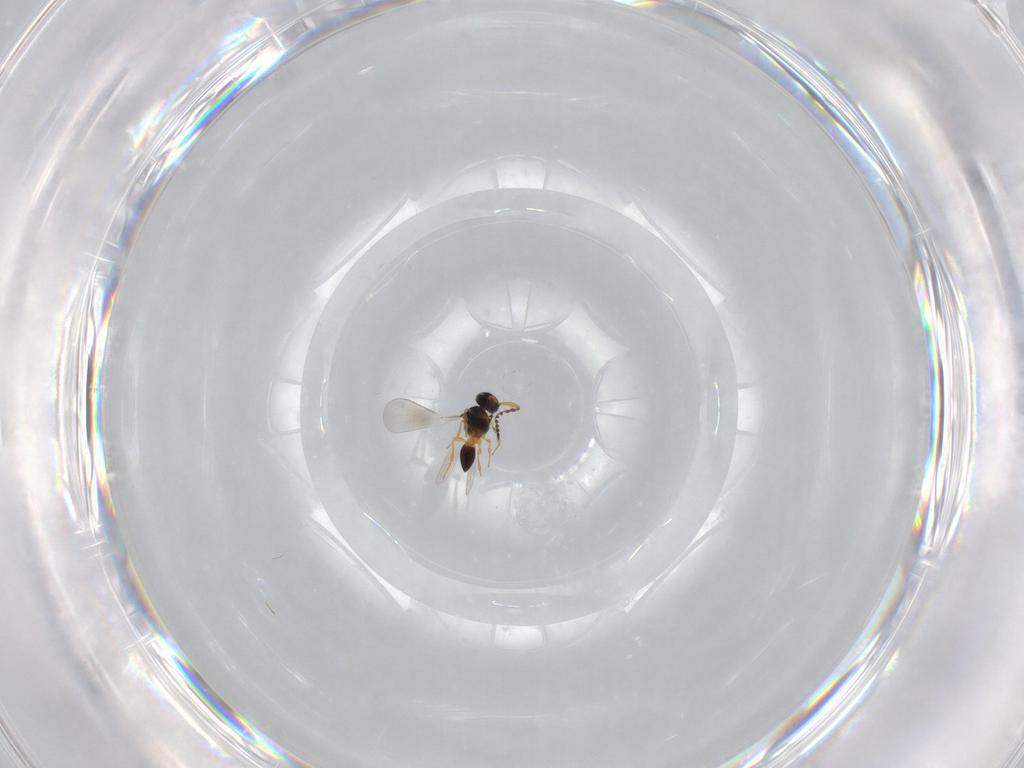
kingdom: Animalia
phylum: Arthropoda
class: Insecta
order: Hymenoptera
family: Platygastridae
